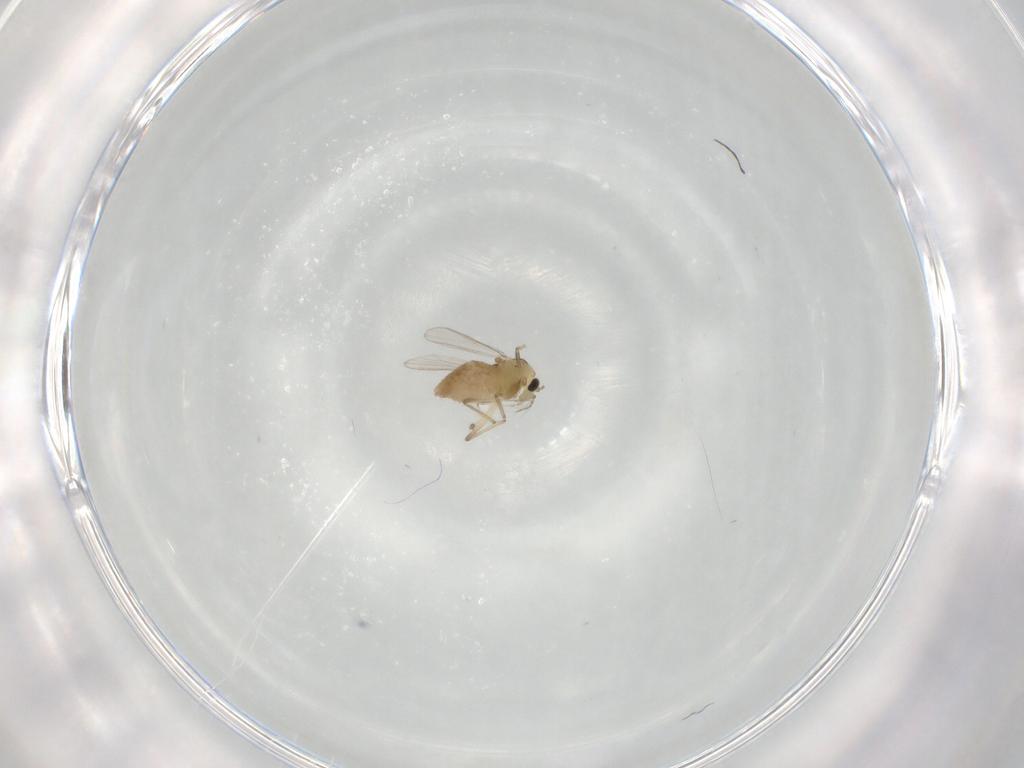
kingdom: Animalia
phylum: Arthropoda
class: Insecta
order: Diptera
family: Chironomidae
